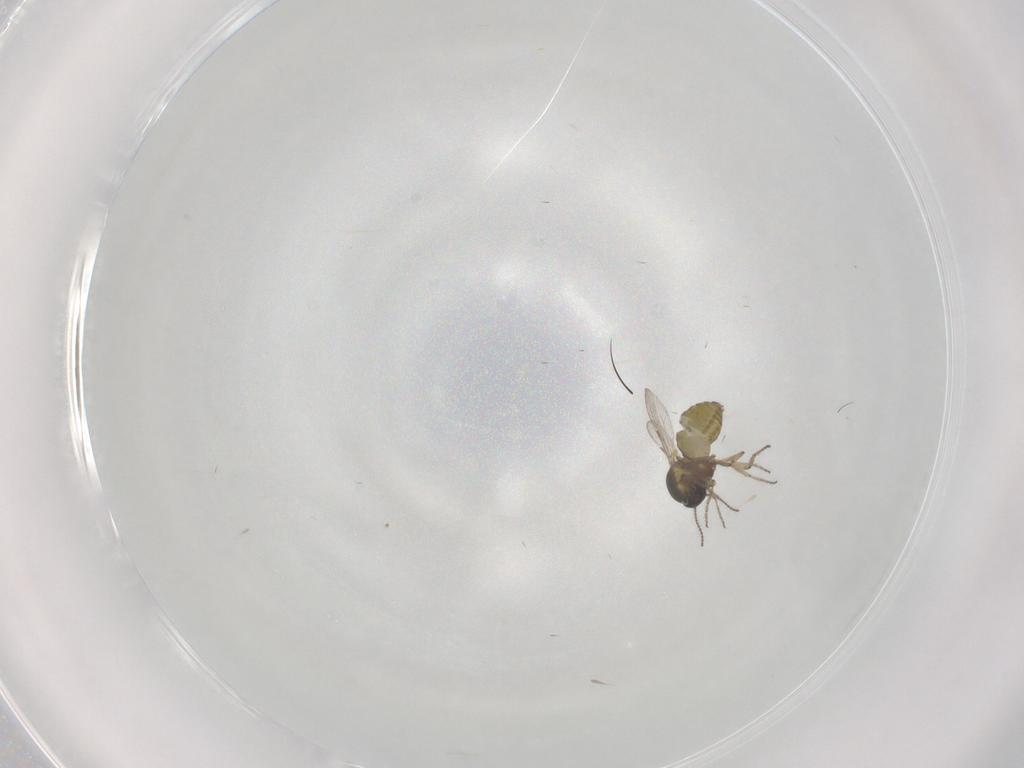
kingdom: Animalia
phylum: Arthropoda
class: Insecta
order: Diptera
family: Ceratopogonidae
